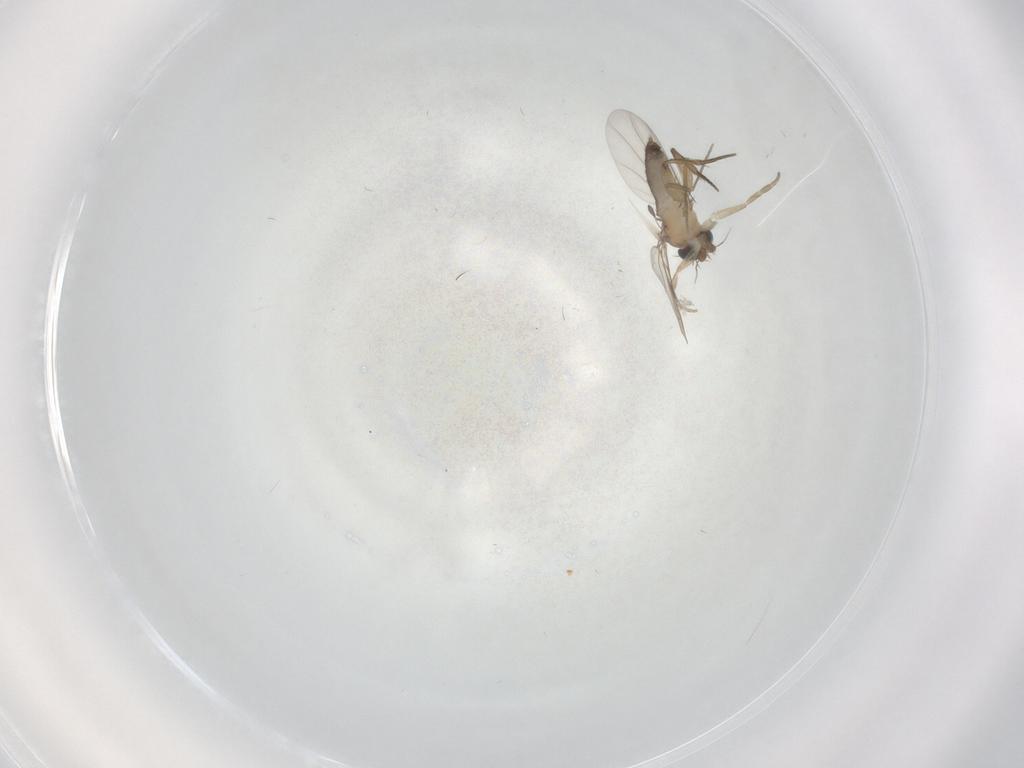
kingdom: Animalia
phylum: Arthropoda
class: Insecta
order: Diptera
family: Phoridae
